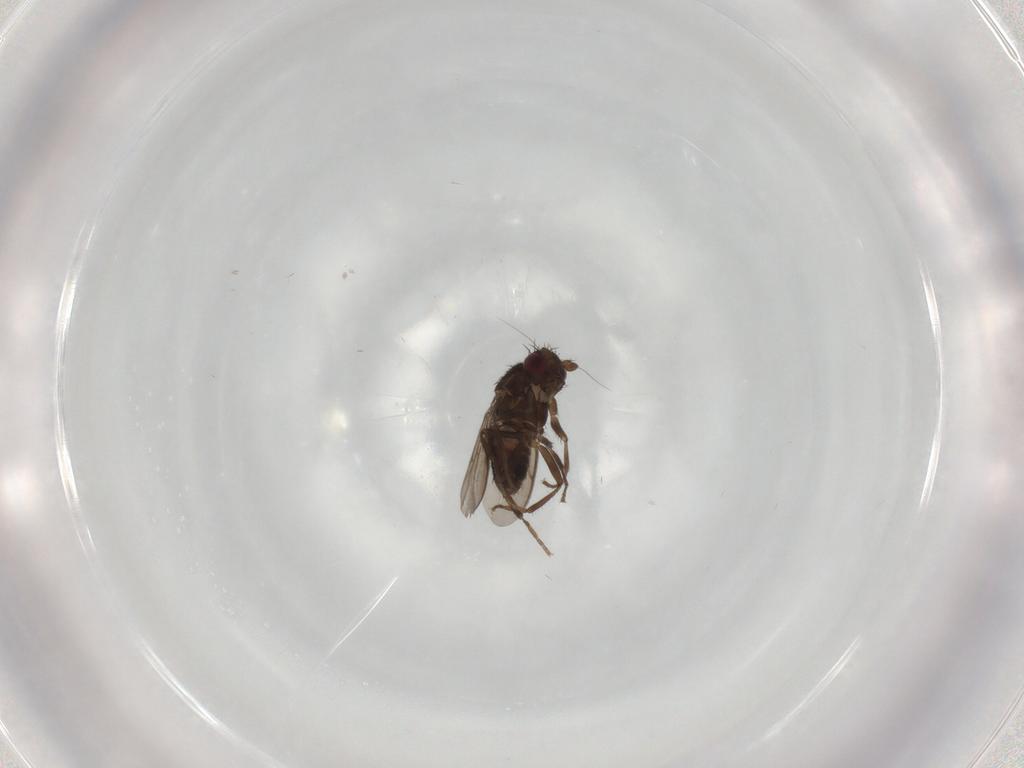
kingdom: Animalia
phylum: Arthropoda
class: Insecta
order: Diptera
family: Sphaeroceridae
